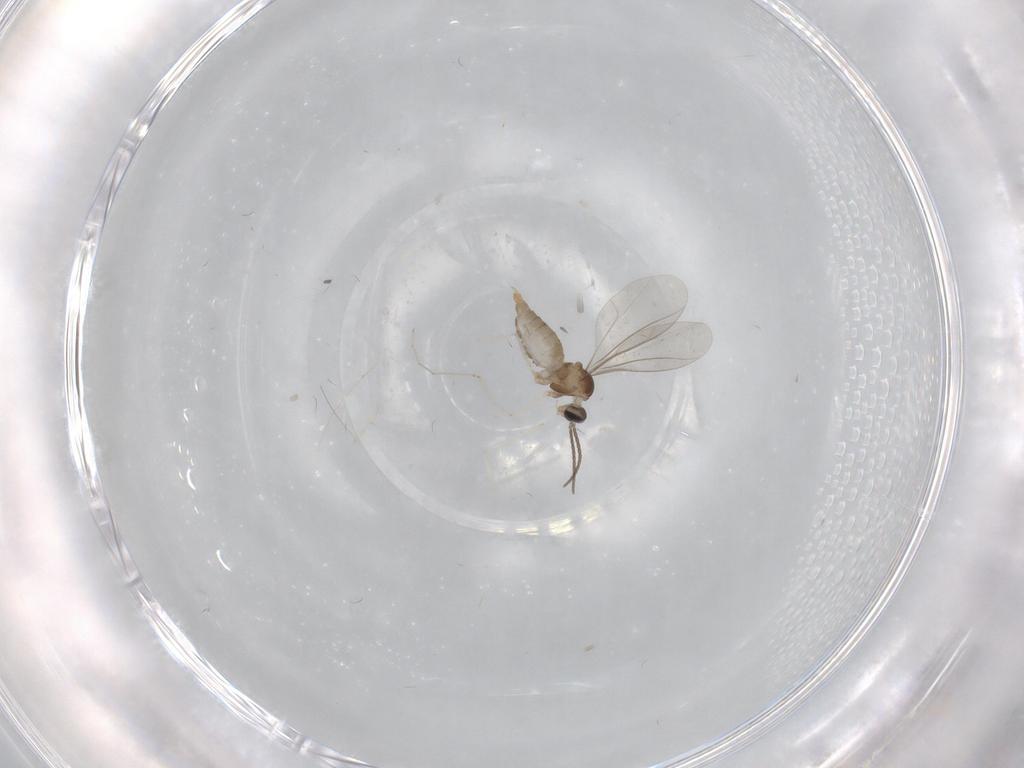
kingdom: Animalia
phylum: Arthropoda
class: Insecta
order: Diptera
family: Cecidomyiidae
